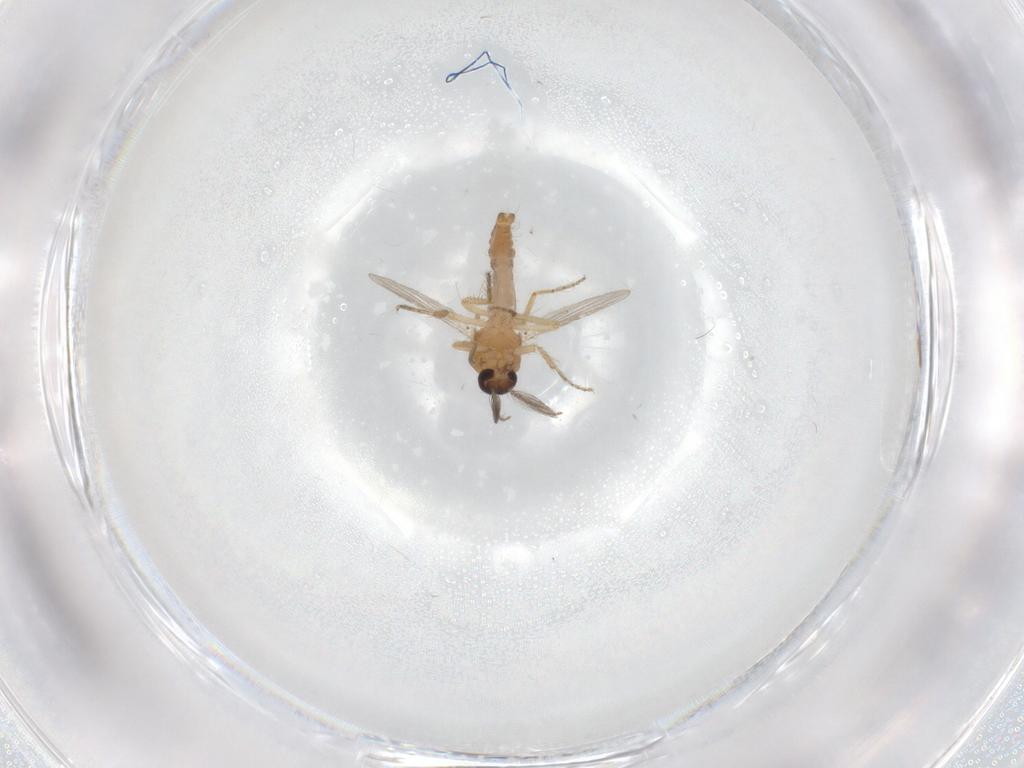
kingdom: Animalia
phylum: Arthropoda
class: Insecta
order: Diptera
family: Ceratopogonidae
